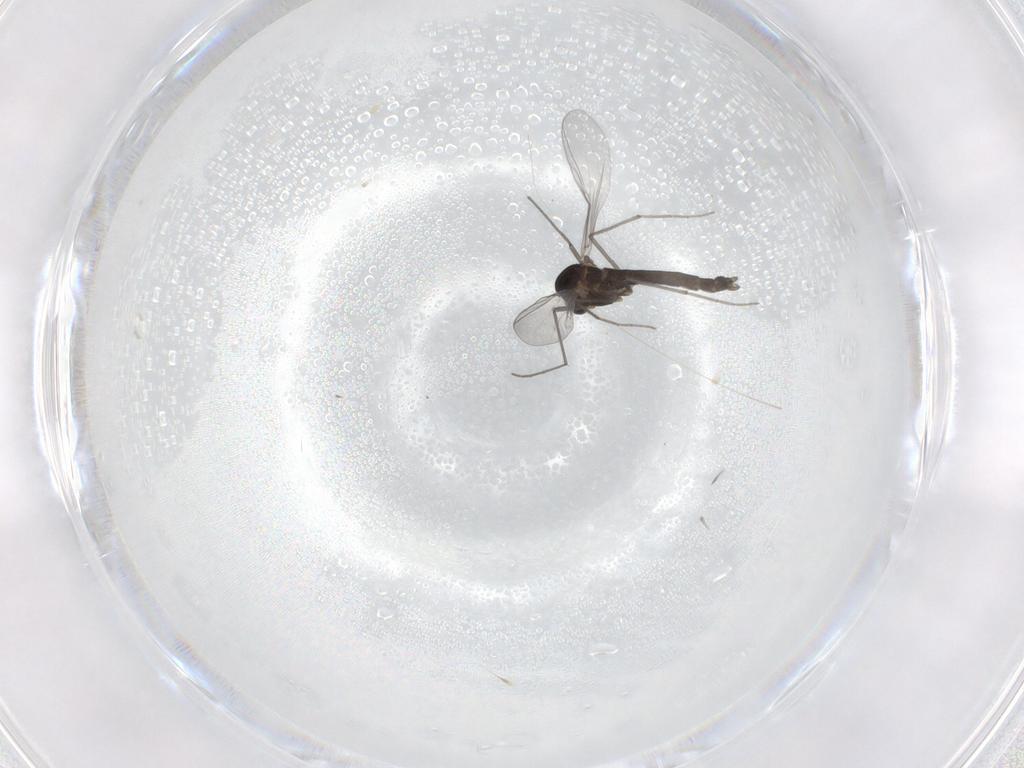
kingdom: Animalia
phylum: Arthropoda
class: Insecta
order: Diptera
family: Chironomidae
